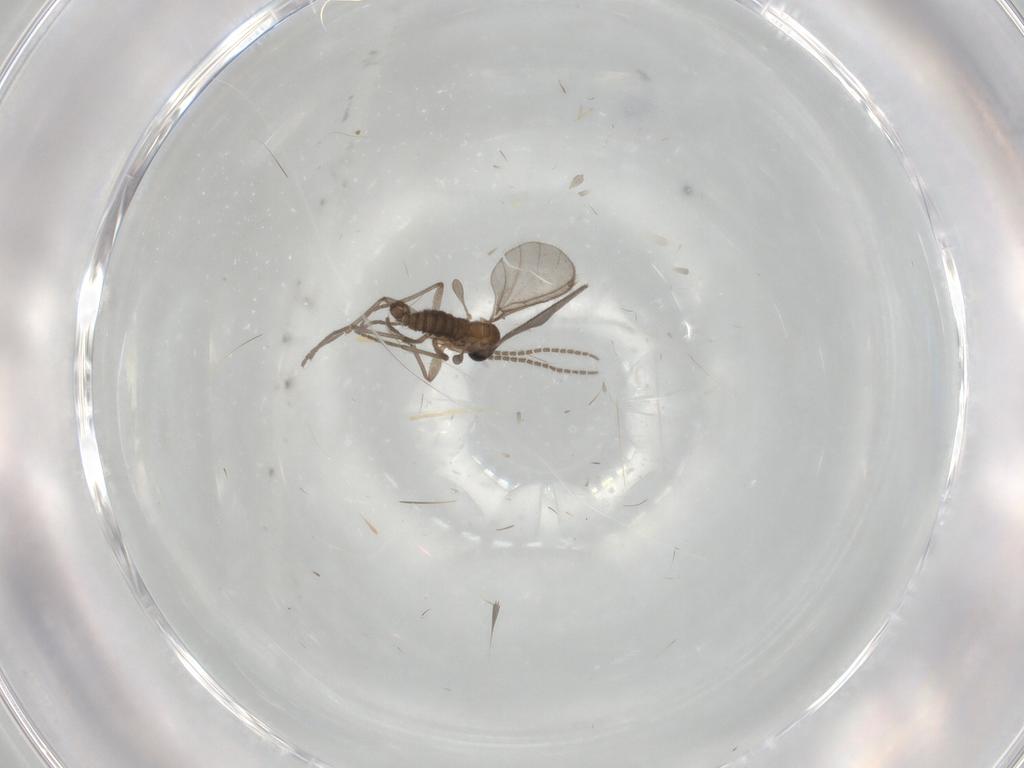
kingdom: Animalia
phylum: Arthropoda
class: Insecta
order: Diptera
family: Sciaridae
